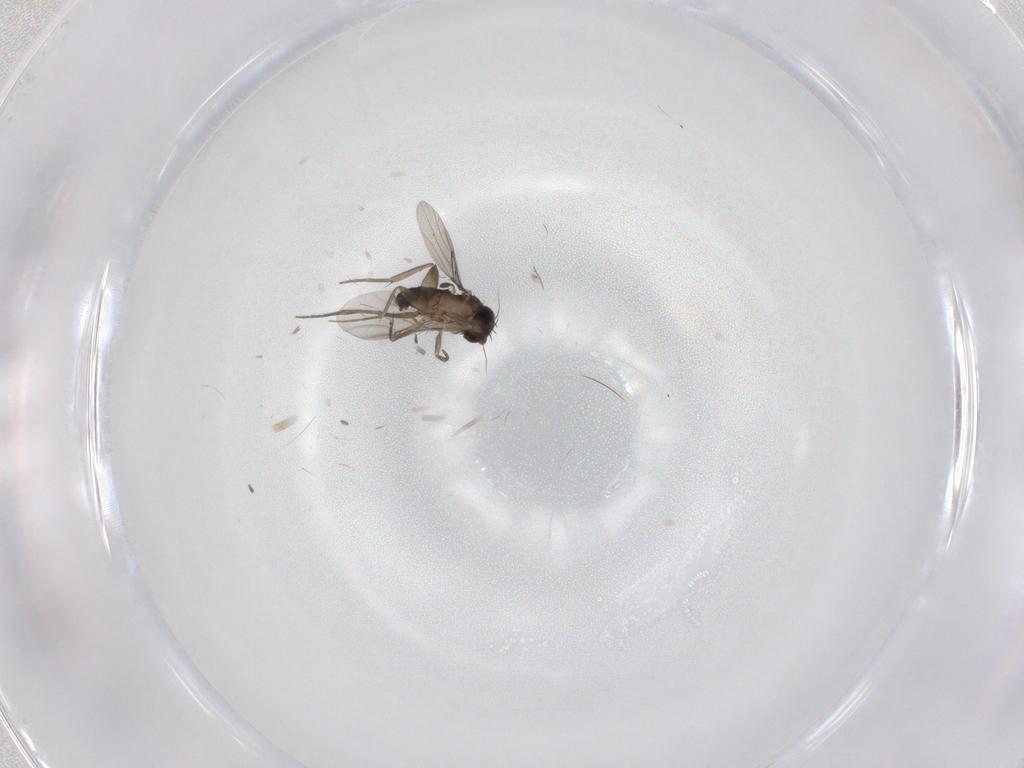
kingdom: Animalia
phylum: Arthropoda
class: Insecta
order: Diptera
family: Phoridae
